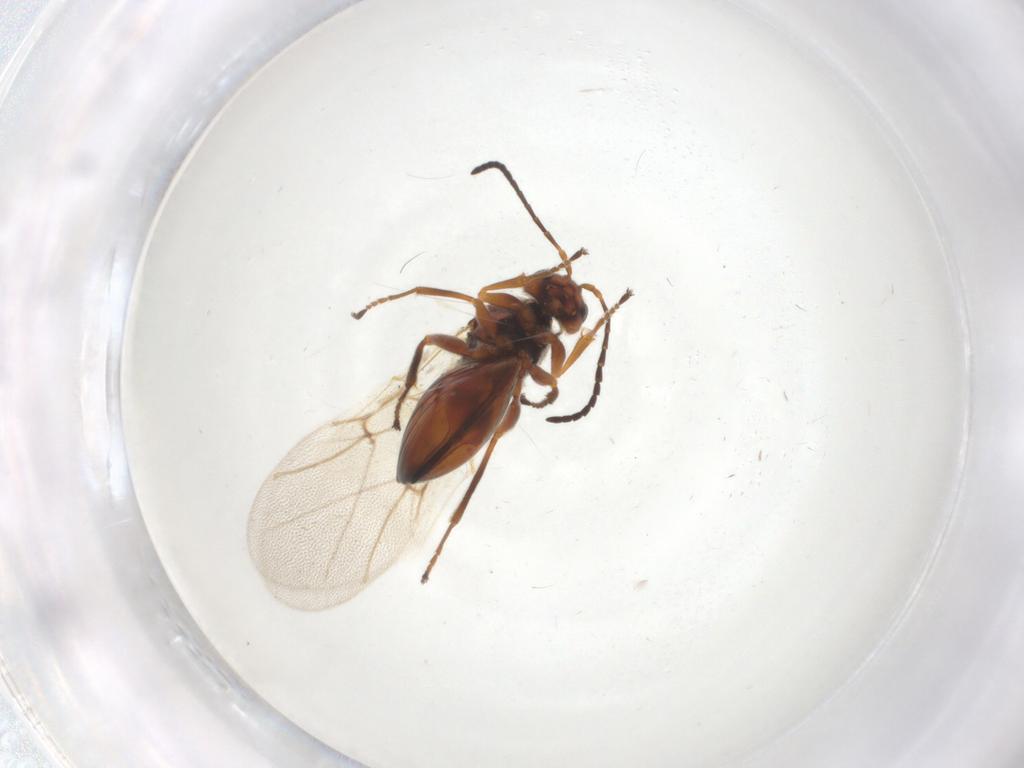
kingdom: Animalia
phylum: Arthropoda
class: Insecta
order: Hymenoptera
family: Cynipidae
